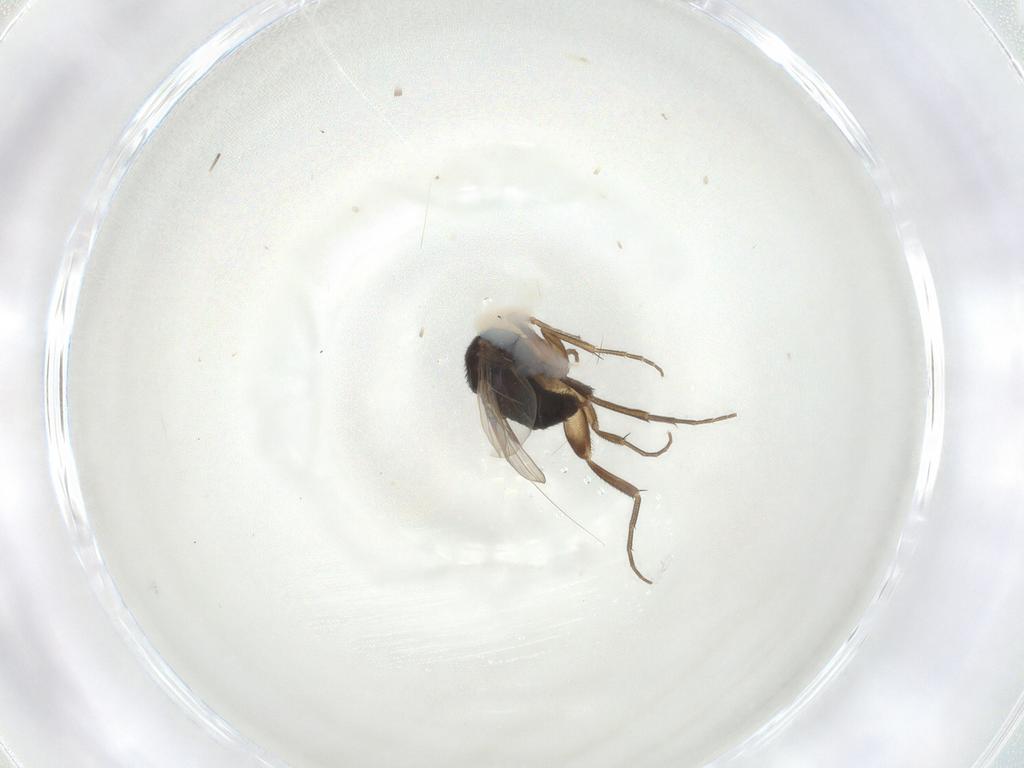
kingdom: Animalia
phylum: Arthropoda
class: Insecta
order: Diptera
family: Phoridae
